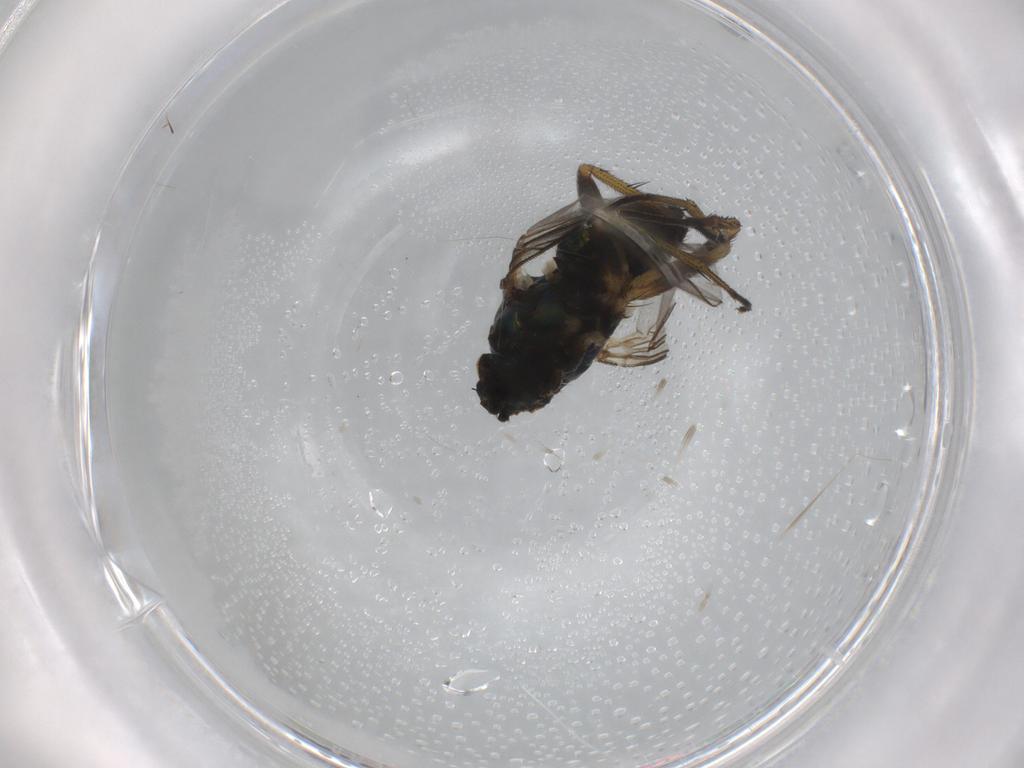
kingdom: Animalia
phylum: Arthropoda
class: Insecta
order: Diptera
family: Dolichopodidae
